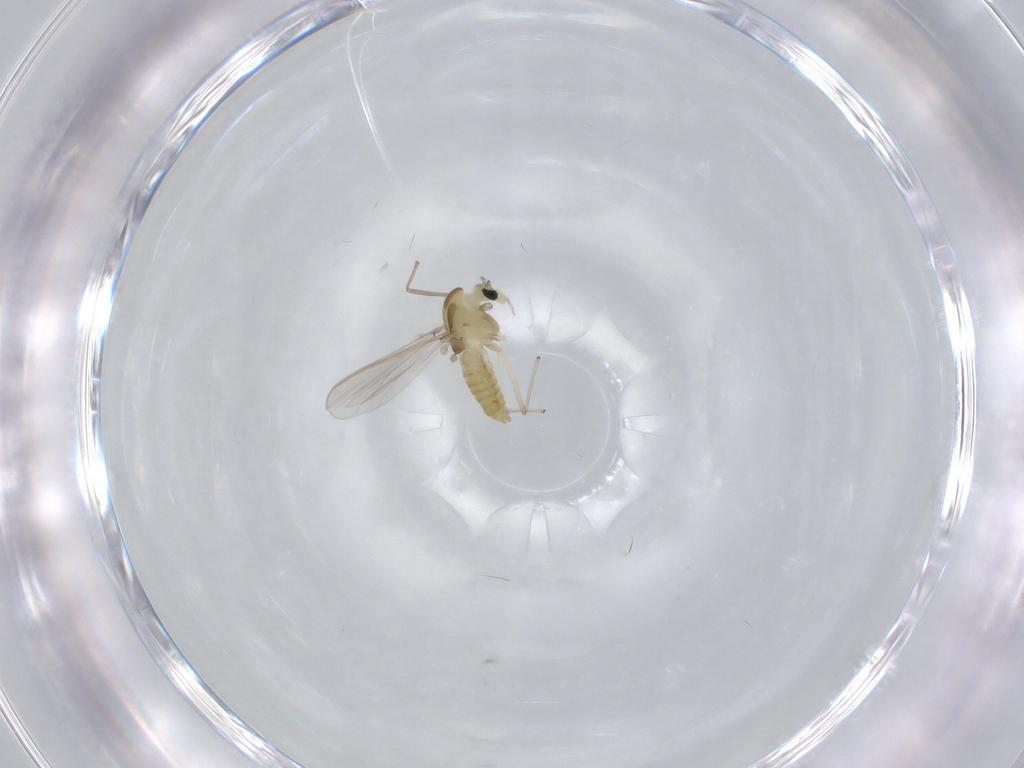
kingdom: Animalia
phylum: Arthropoda
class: Insecta
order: Diptera
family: Chironomidae
